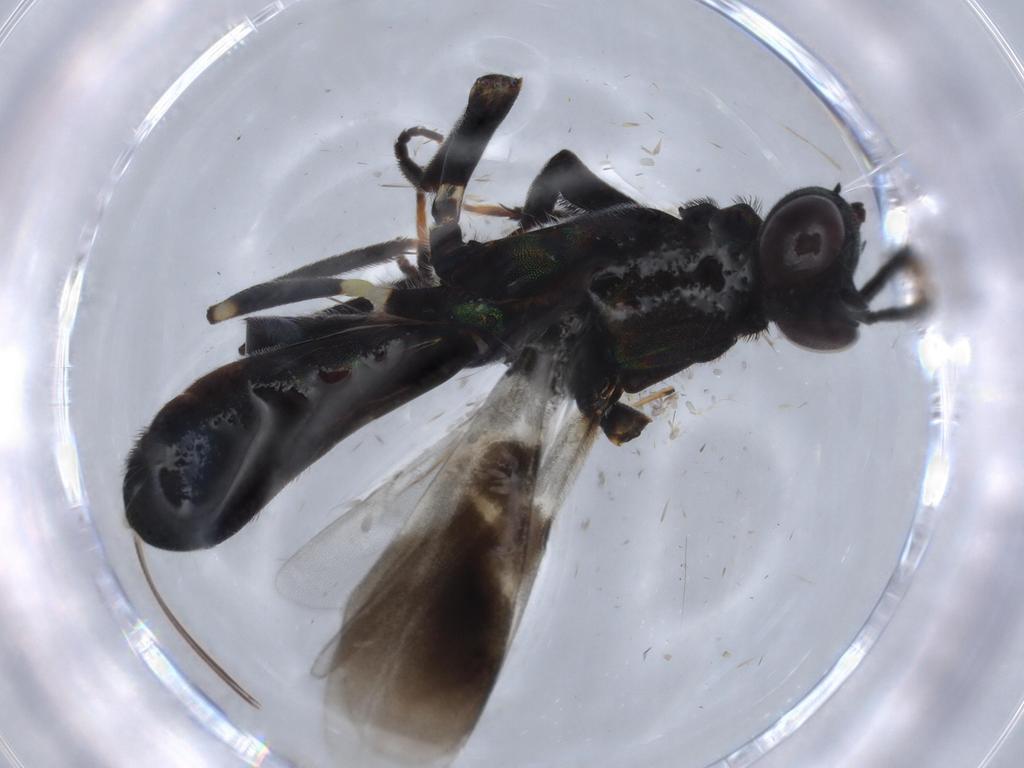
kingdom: Animalia
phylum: Arthropoda
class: Insecta
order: Hymenoptera
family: Eupelmidae
